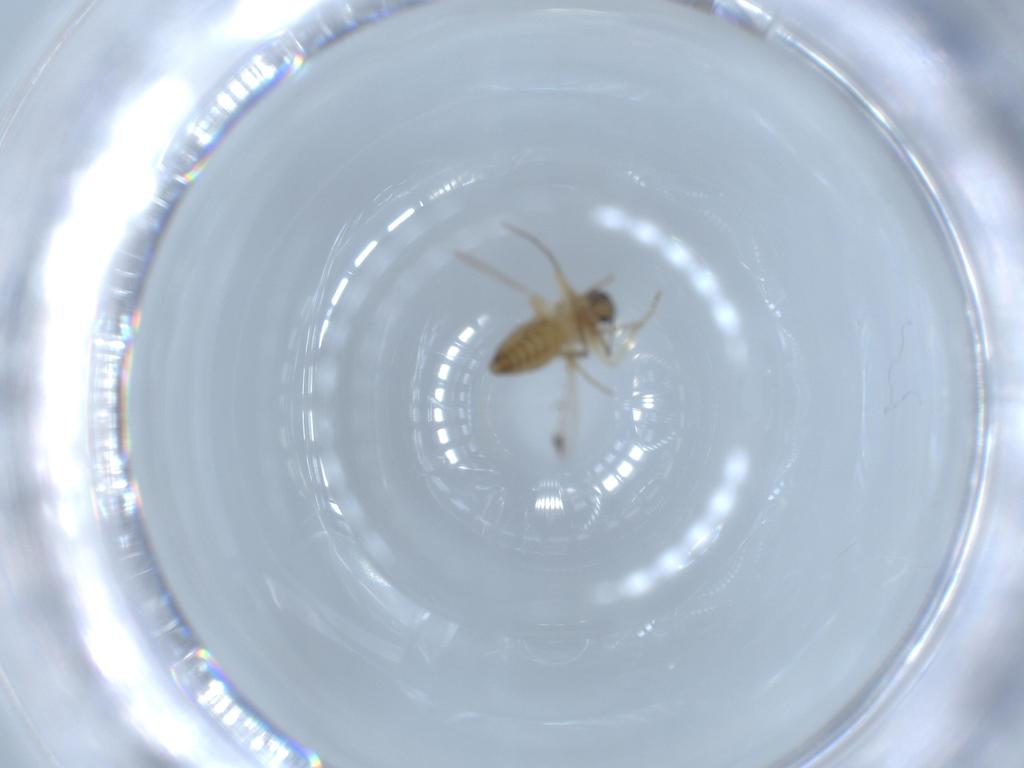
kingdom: Animalia
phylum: Arthropoda
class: Insecta
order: Diptera
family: Ceratopogonidae
